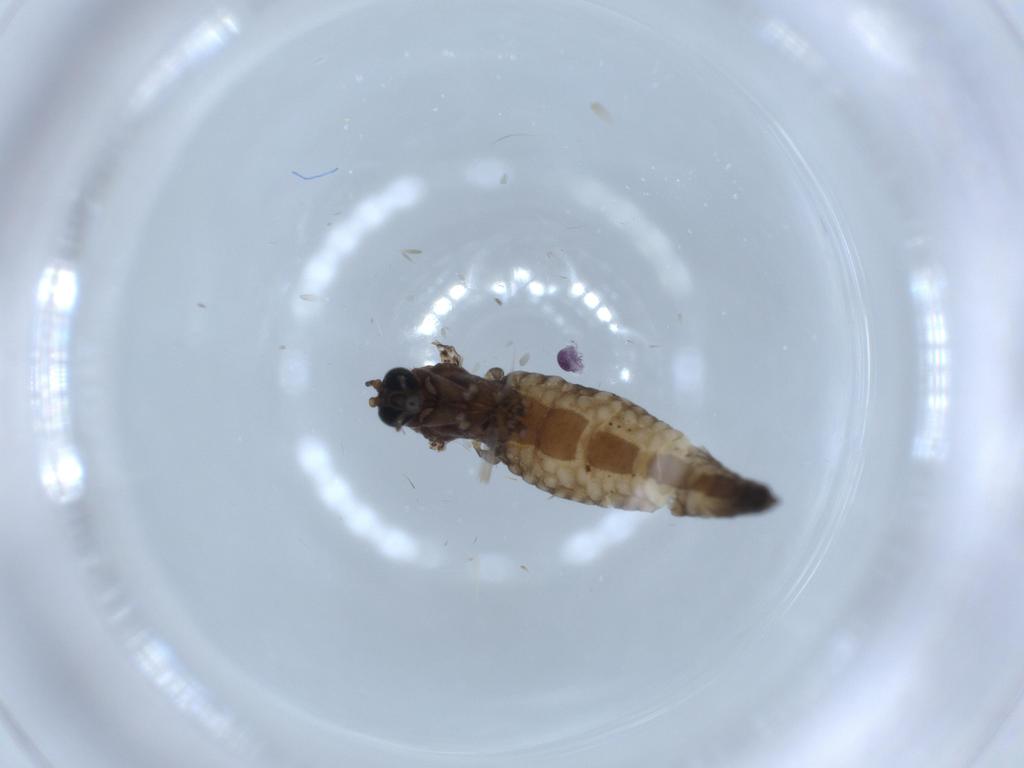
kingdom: Animalia
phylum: Arthropoda
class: Insecta
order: Diptera
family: Sciaridae
